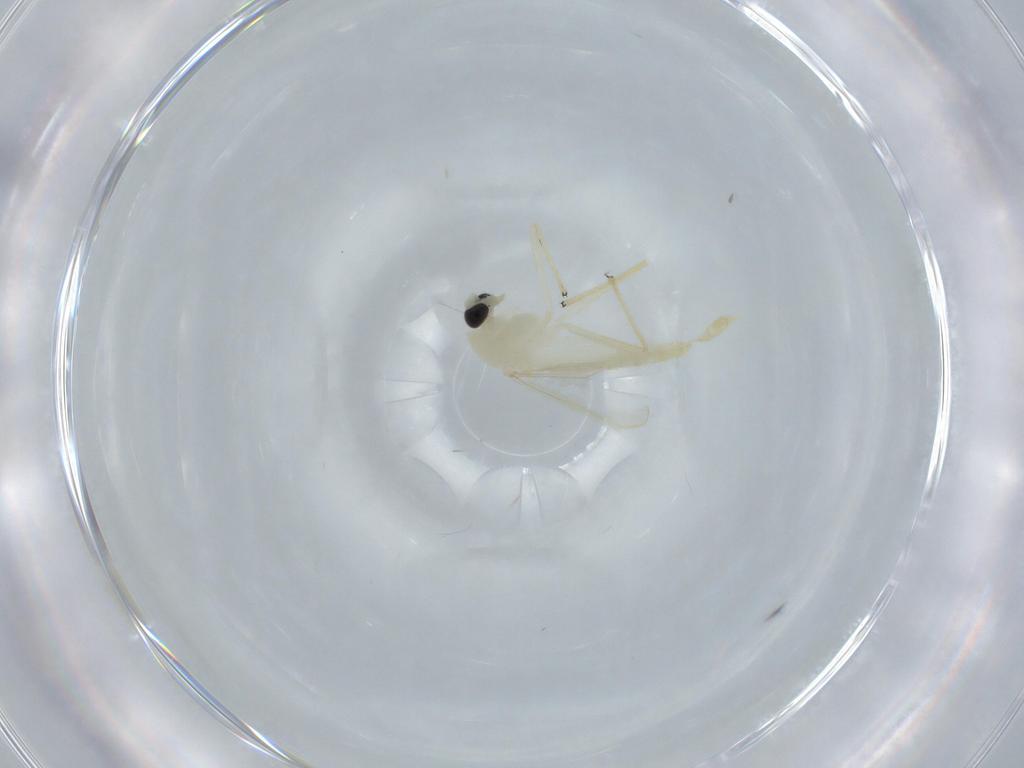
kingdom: Animalia
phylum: Arthropoda
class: Insecta
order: Diptera
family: Chironomidae
